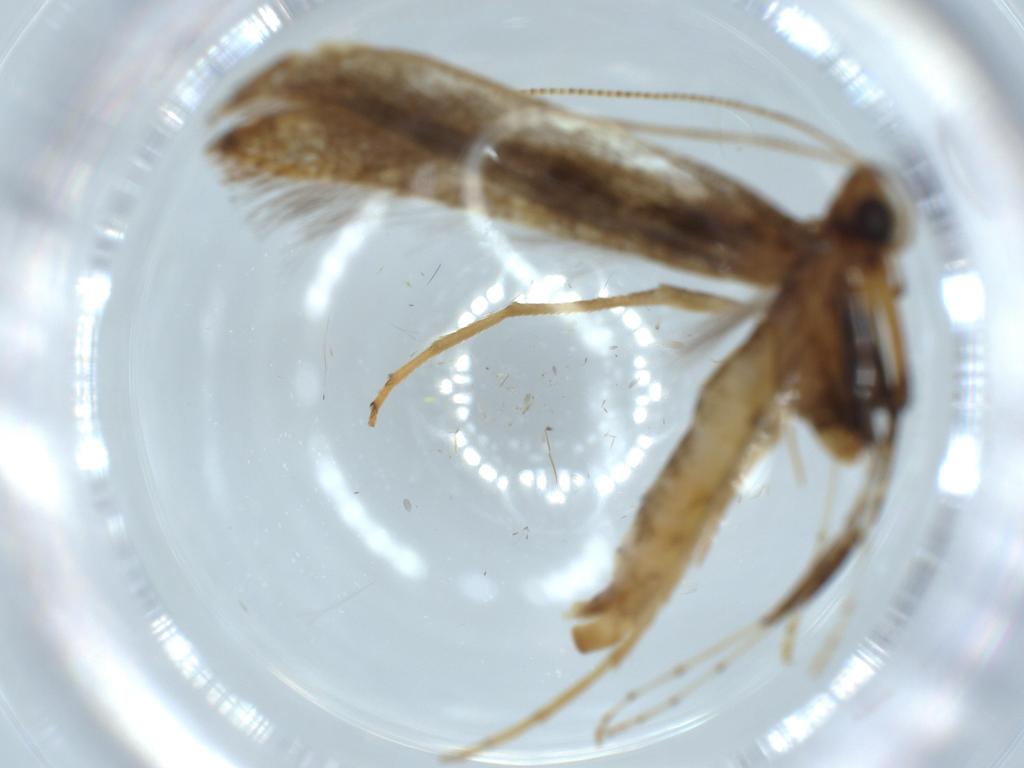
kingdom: Animalia
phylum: Arthropoda
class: Insecta
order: Lepidoptera
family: Gracillariidae
